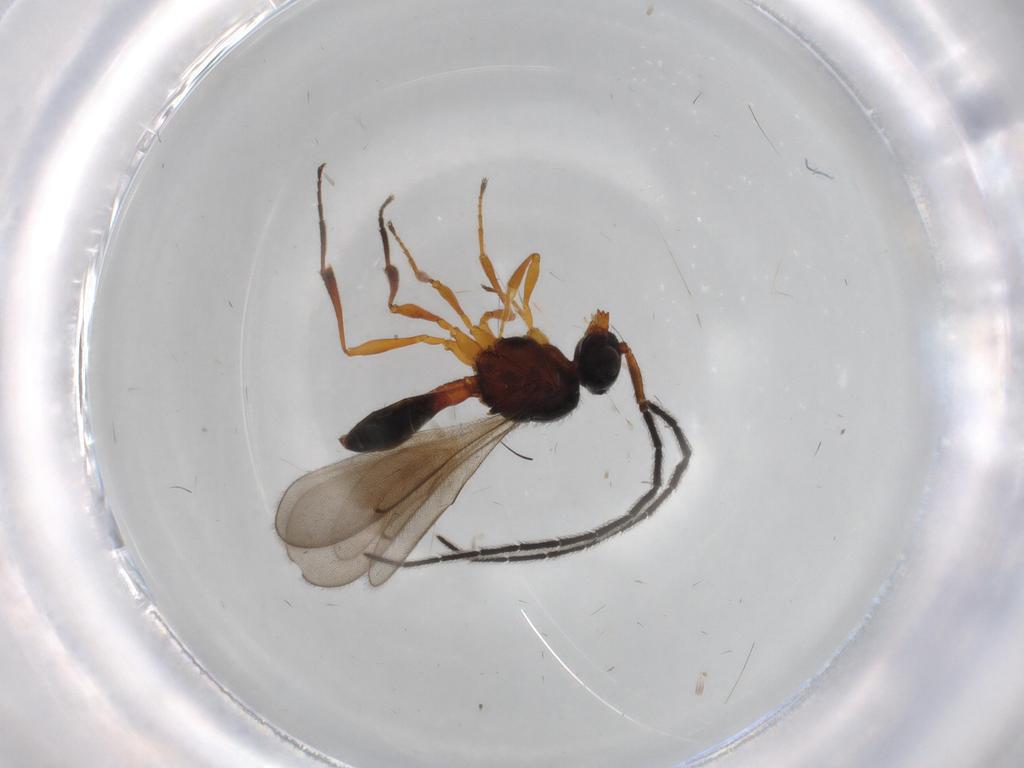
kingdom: Animalia
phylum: Arthropoda
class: Insecta
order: Hymenoptera
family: Scelionidae
